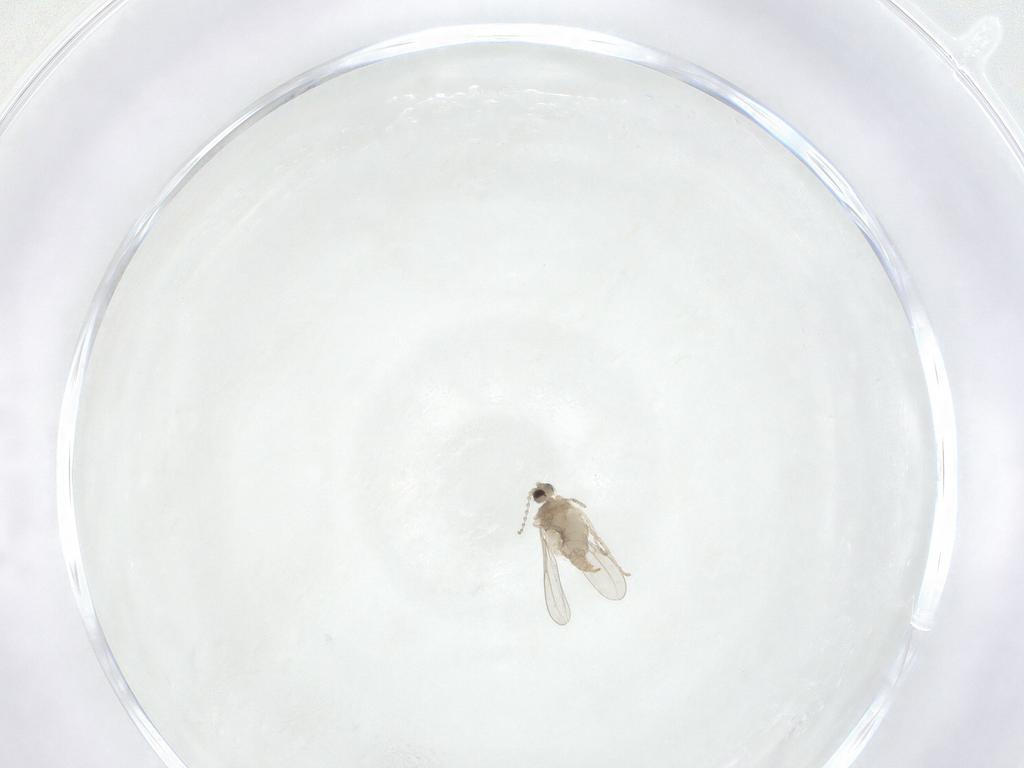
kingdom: Animalia
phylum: Arthropoda
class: Insecta
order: Diptera
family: Cecidomyiidae
